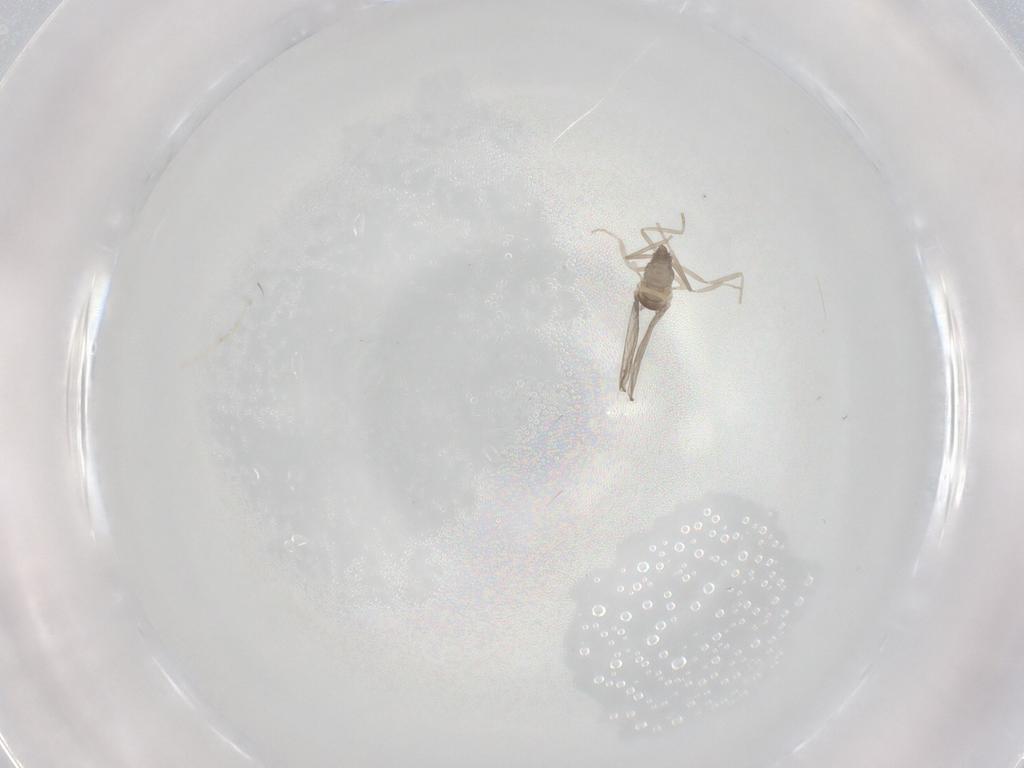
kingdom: Animalia
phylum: Arthropoda
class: Insecta
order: Diptera
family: Cecidomyiidae
